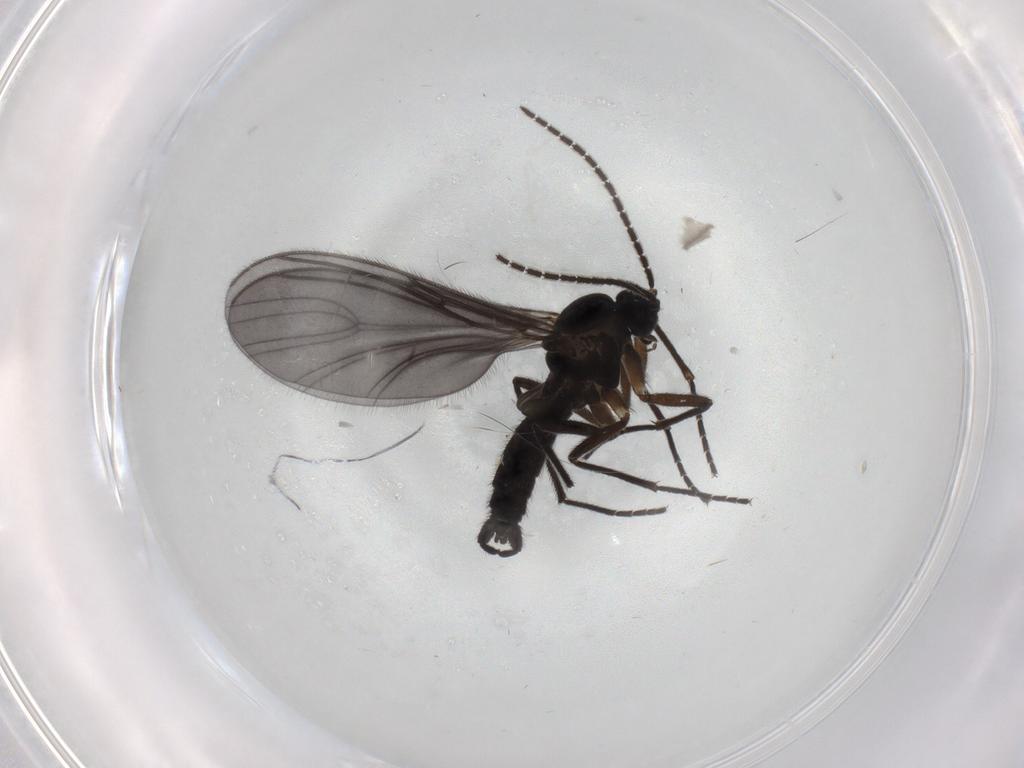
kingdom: Animalia
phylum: Arthropoda
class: Insecta
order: Diptera
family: Sciaridae
